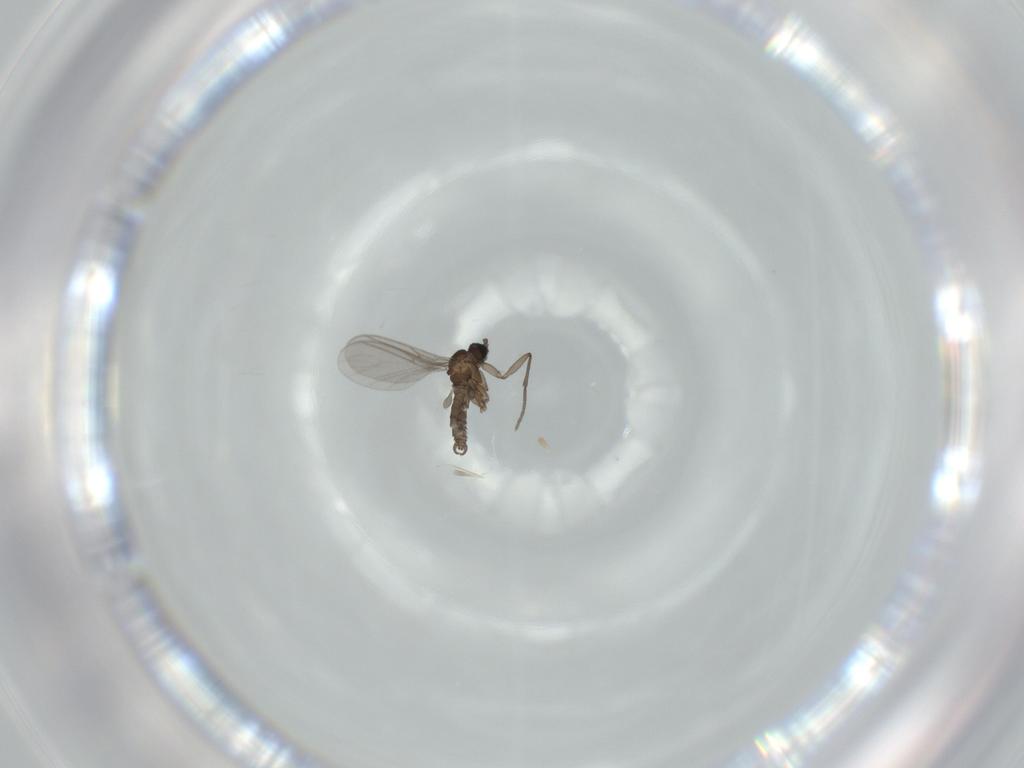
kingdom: Animalia
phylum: Arthropoda
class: Insecta
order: Diptera
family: Sciaridae
